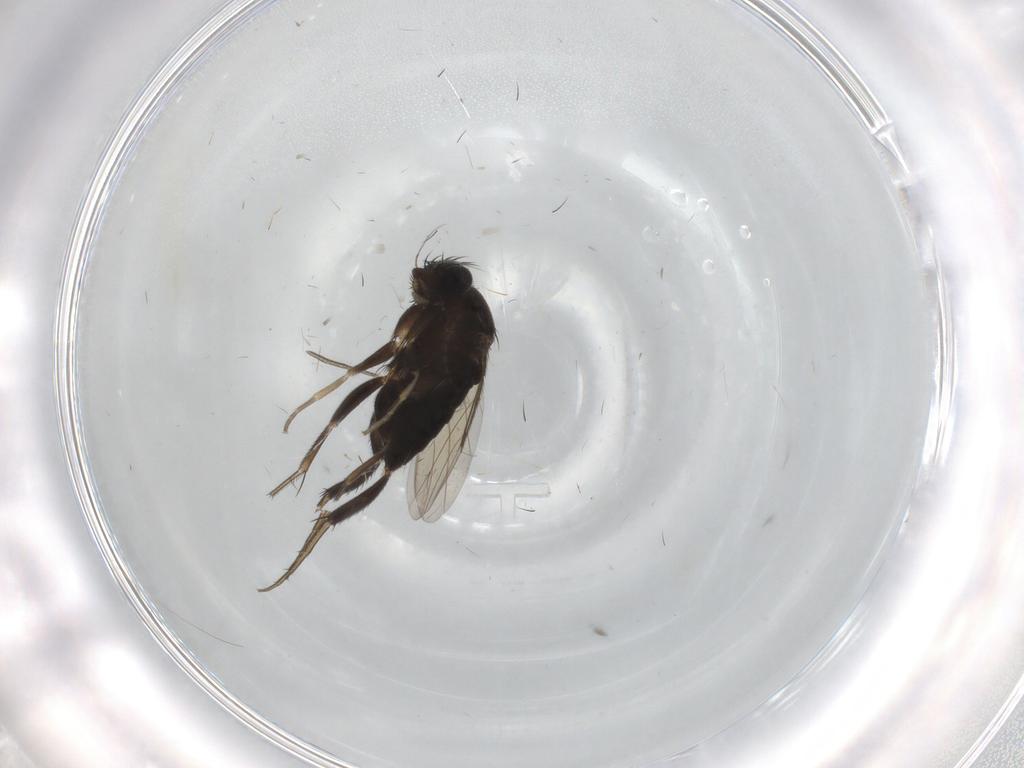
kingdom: Animalia
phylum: Arthropoda
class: Insecta
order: Diptera
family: Phoridae
